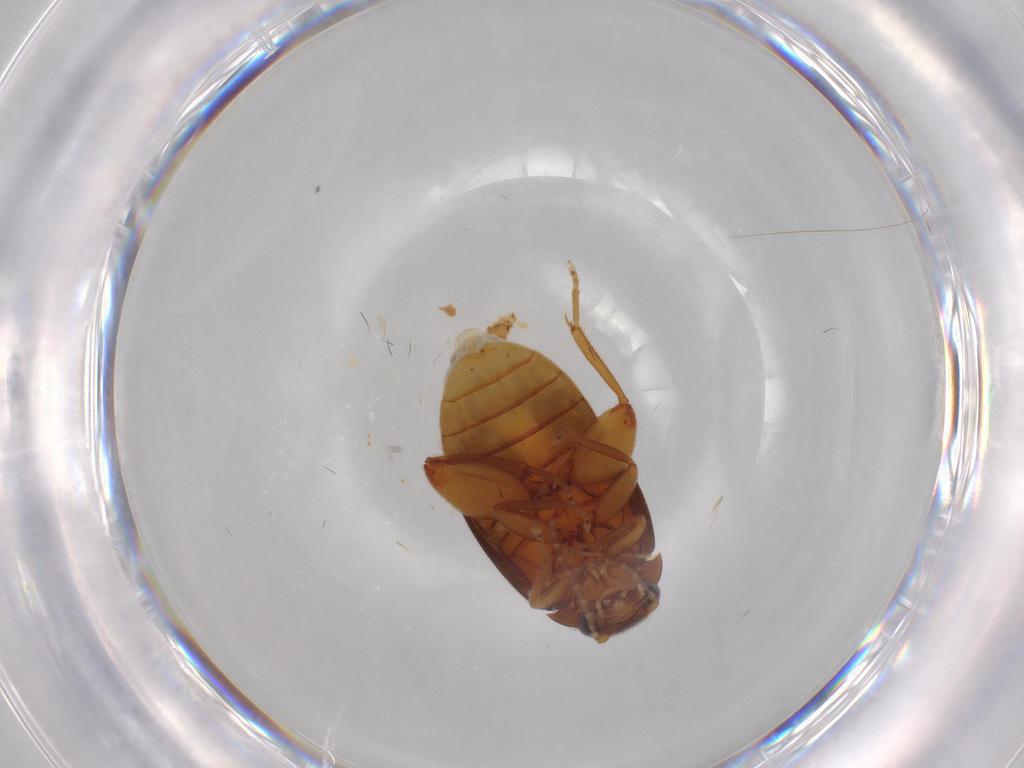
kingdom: Animalia
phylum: Arthropoda
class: Insecta
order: Coleoptera
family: Scirtidae
